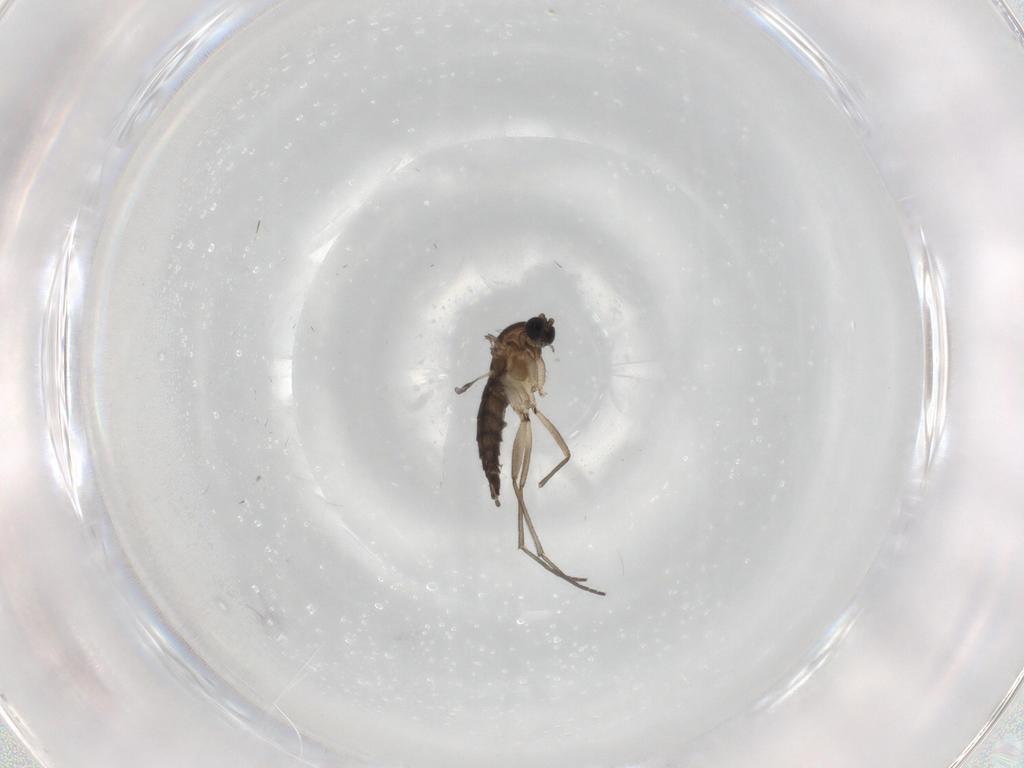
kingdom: Animalia
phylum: Arthropoda
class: Insecta
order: Diptera
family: Sciaridae
